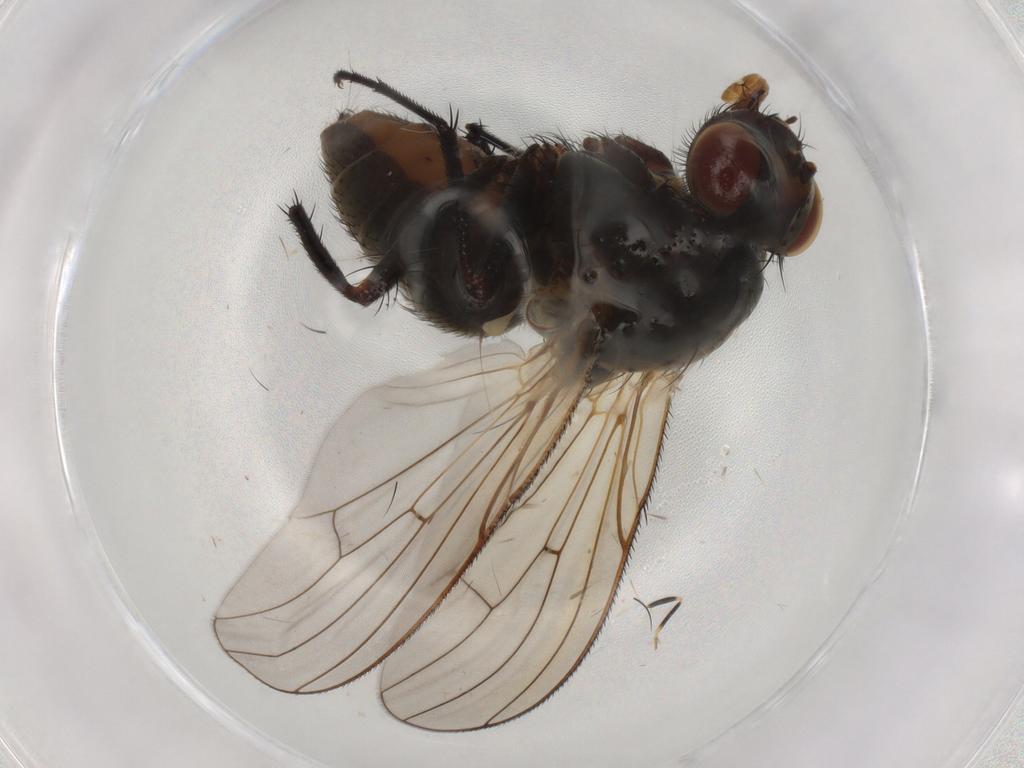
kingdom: Animalia
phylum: Arthropoda
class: Insecta
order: Diptera
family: Anthomyiidae
